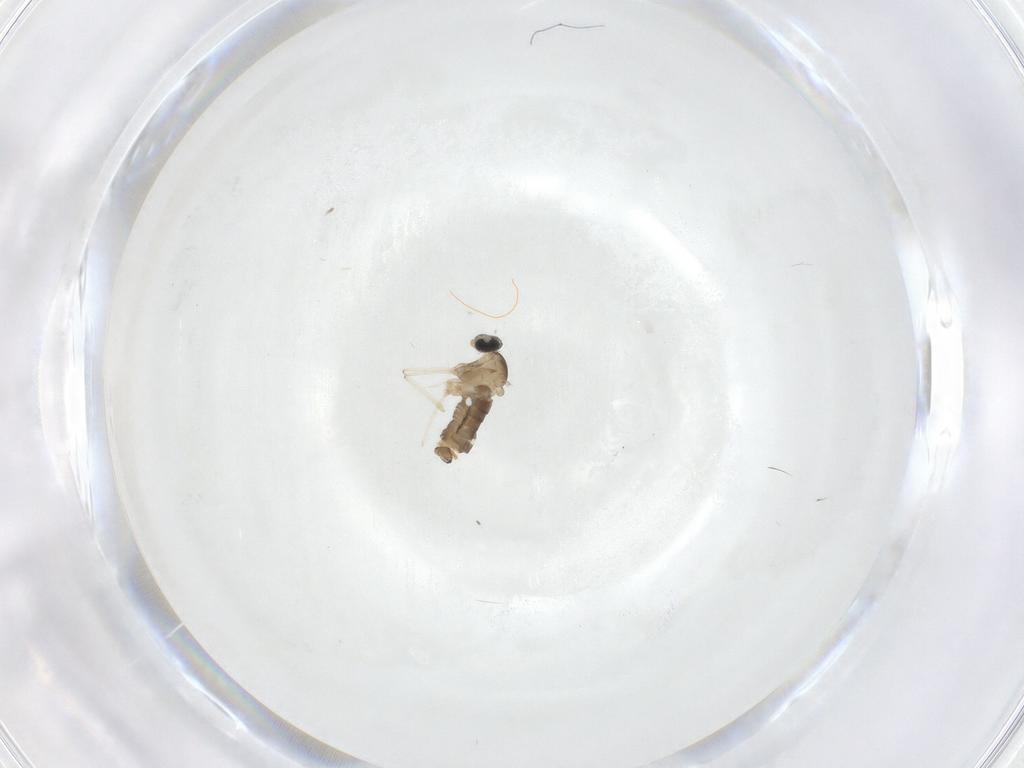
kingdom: Animalia
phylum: Arthropoda
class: Insecta
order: Diptera
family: Cecidomyiidae
